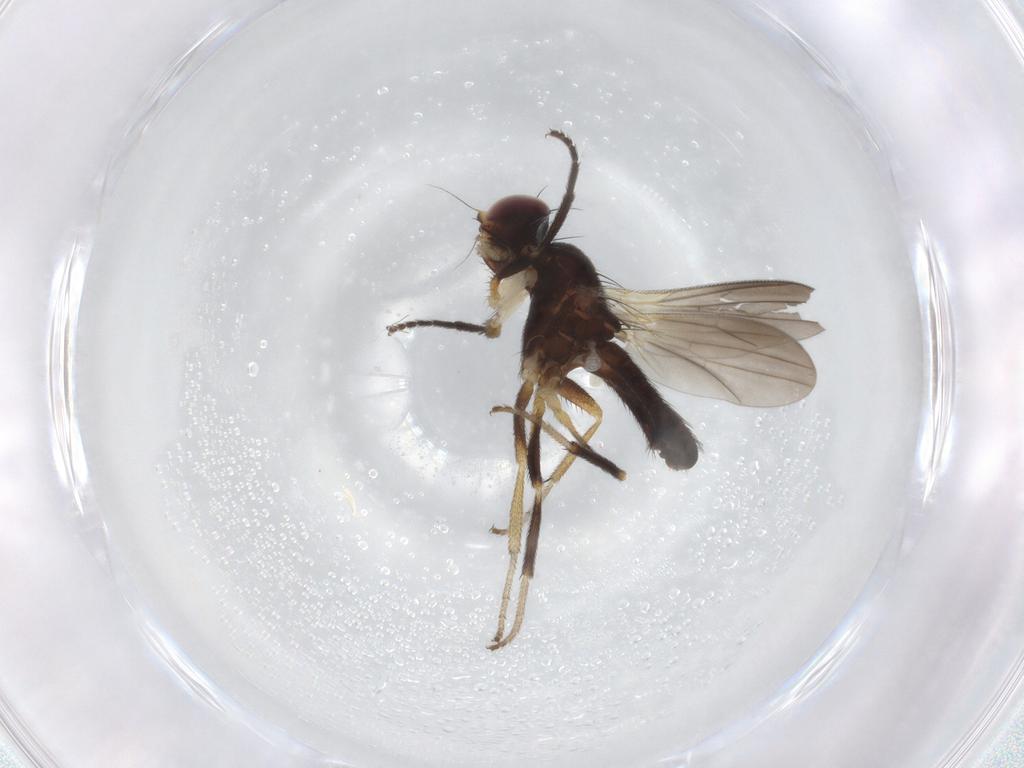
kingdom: Animalia
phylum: Arthropoda
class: Insecta
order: Diptera
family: Clusiidae
